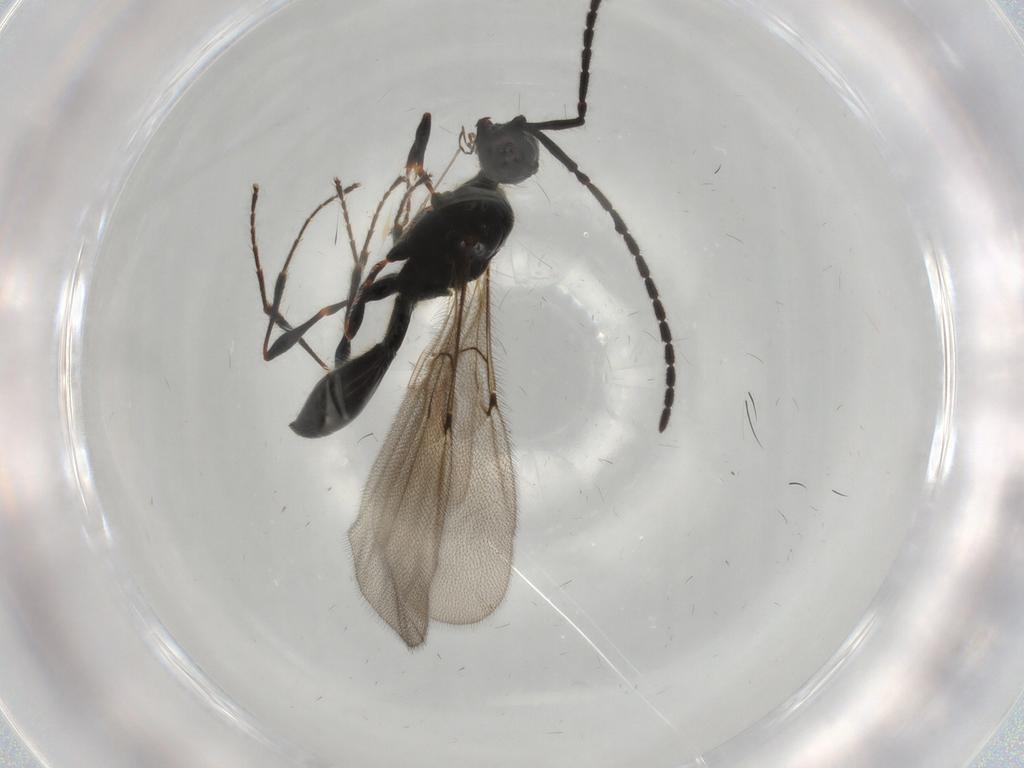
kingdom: Animalia
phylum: Arthropoda
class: Insecta
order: Hymenoptera
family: Diapriidae
